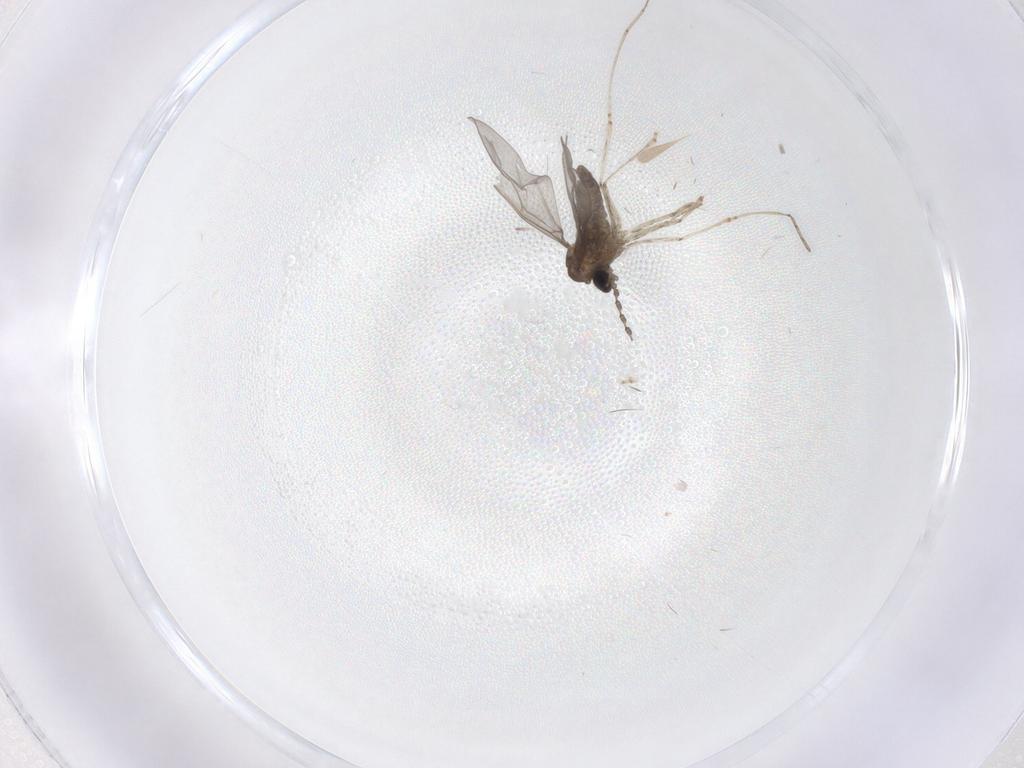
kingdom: Animalia
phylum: Arthropoda
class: Insecta
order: Diptera
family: Cecidomyiidae
